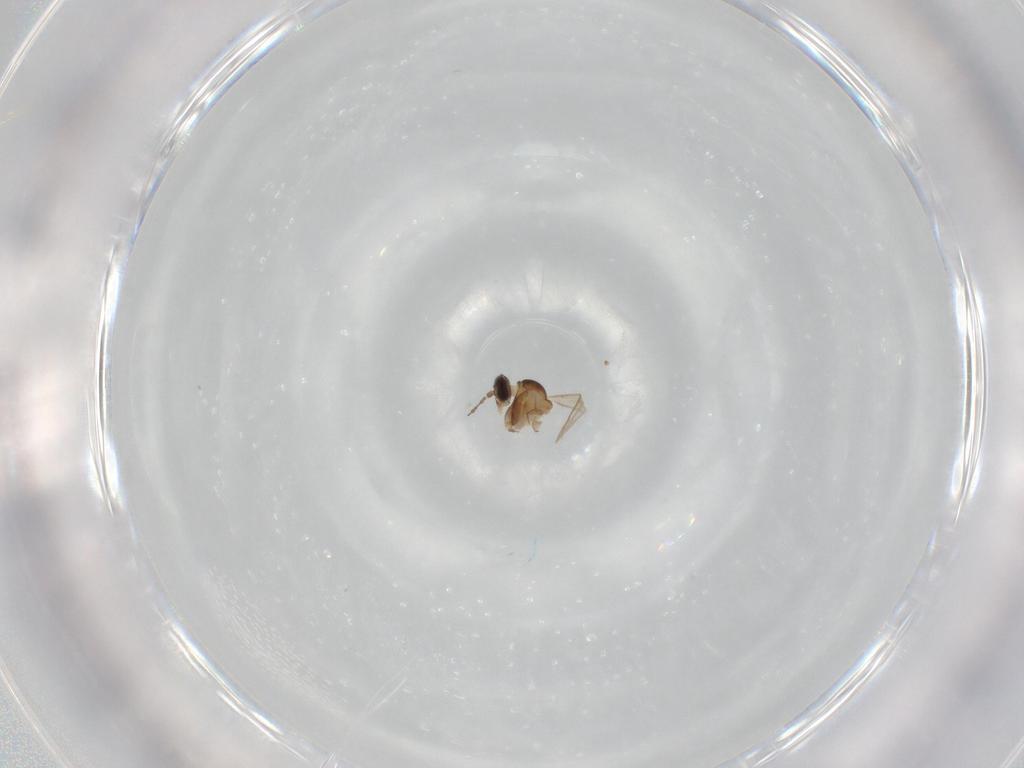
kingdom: Animalia
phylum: Arthropoda
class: Insecta
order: Diptera
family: Cecidomyiidae
